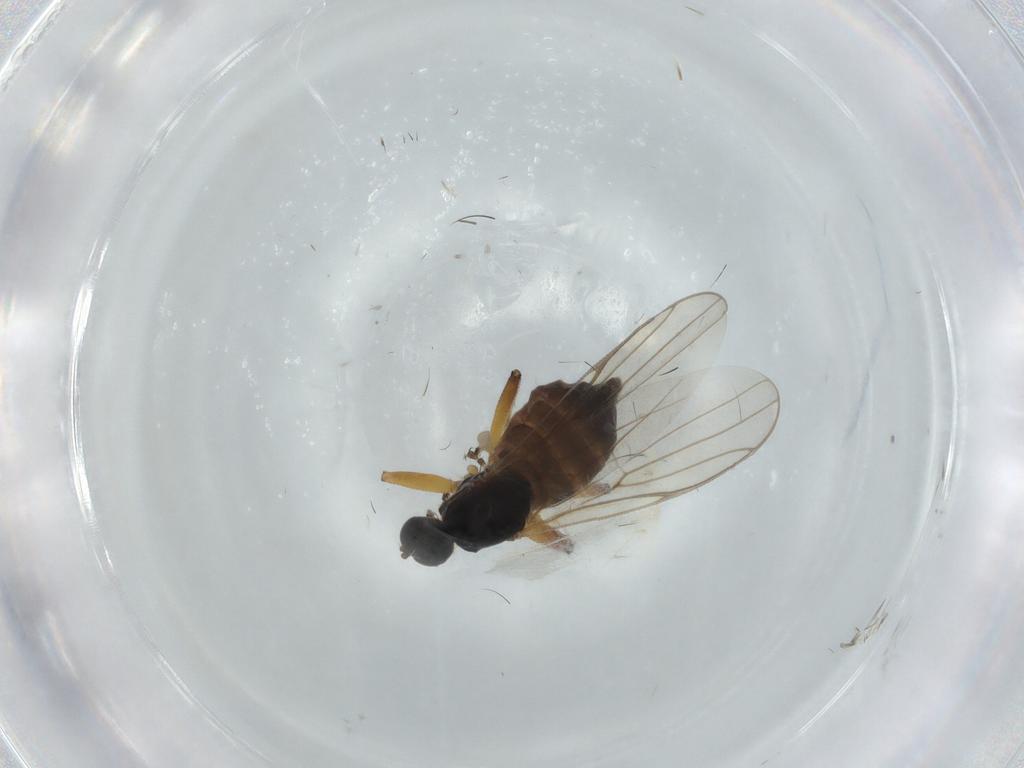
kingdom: Animalia
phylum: Arthropoda
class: Insecta
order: Diptera
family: Hybotidae
